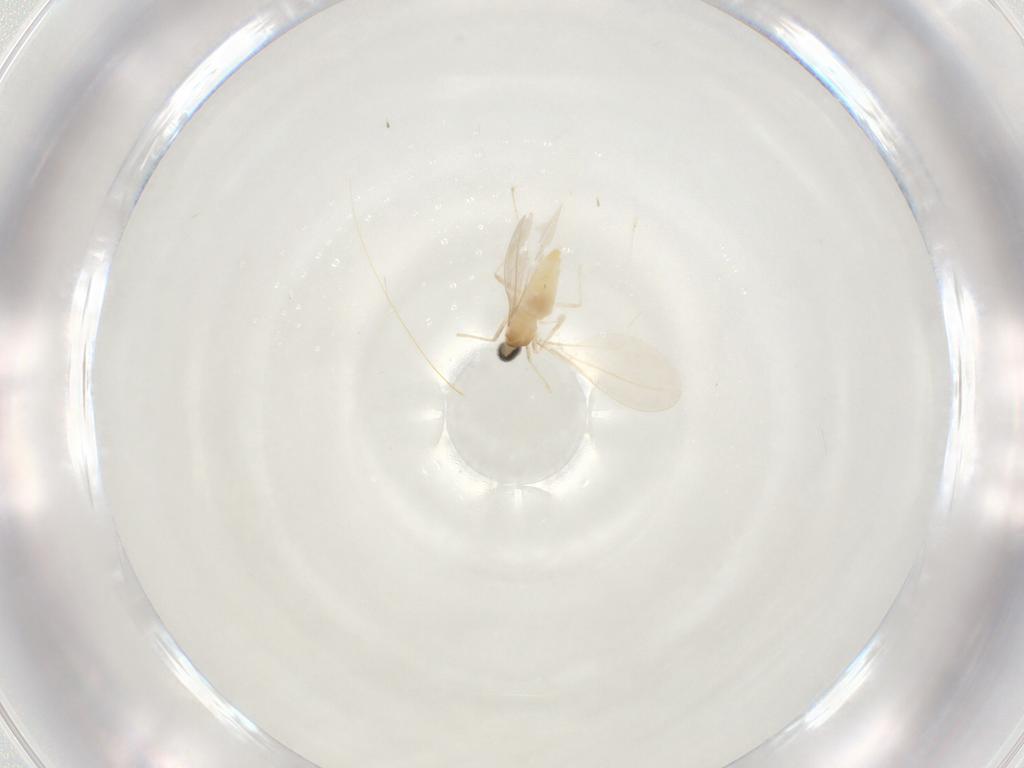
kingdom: Animalia
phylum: Arthropoda
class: Insecta
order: Diptera
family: Cecidomyiidae
